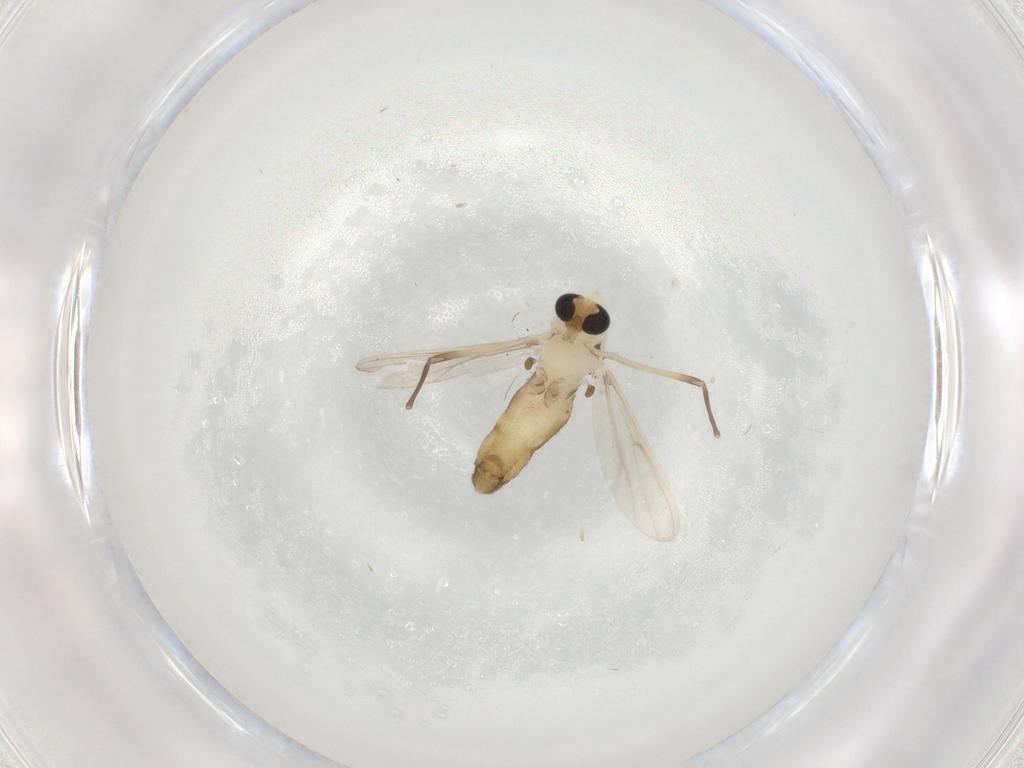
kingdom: Animalia
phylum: Arthropoda
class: Insecta
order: Diptera
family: Chironomidae
